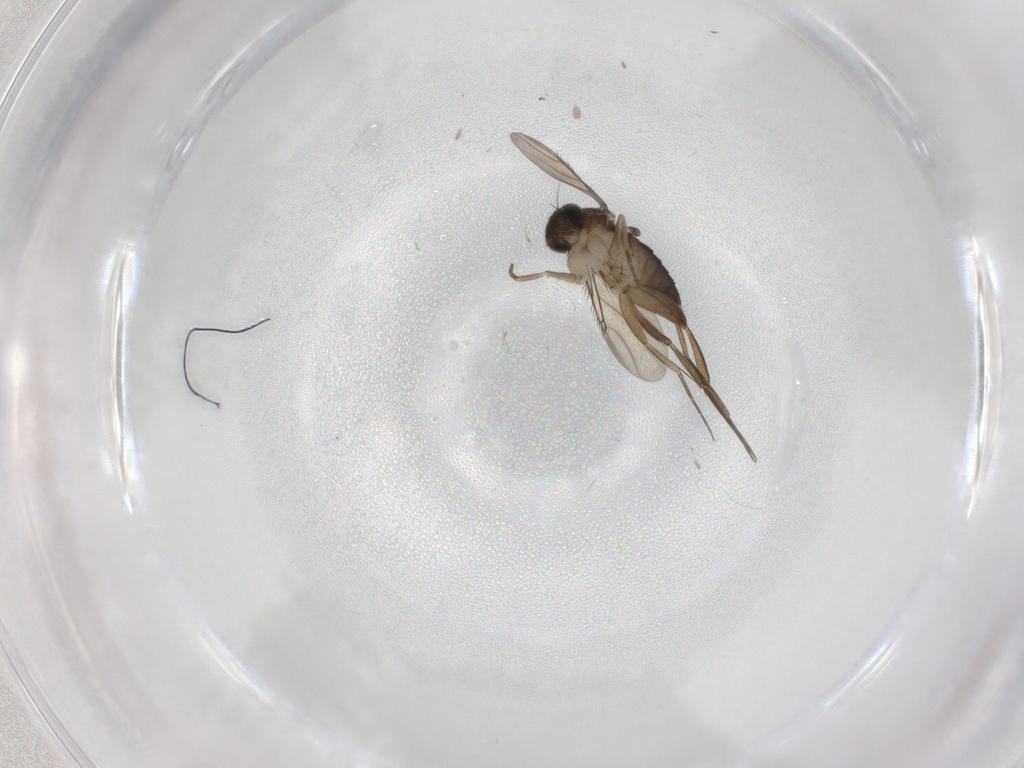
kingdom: Animalia
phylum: Arthropoda
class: Insecta
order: Diptera
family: Phoridae
